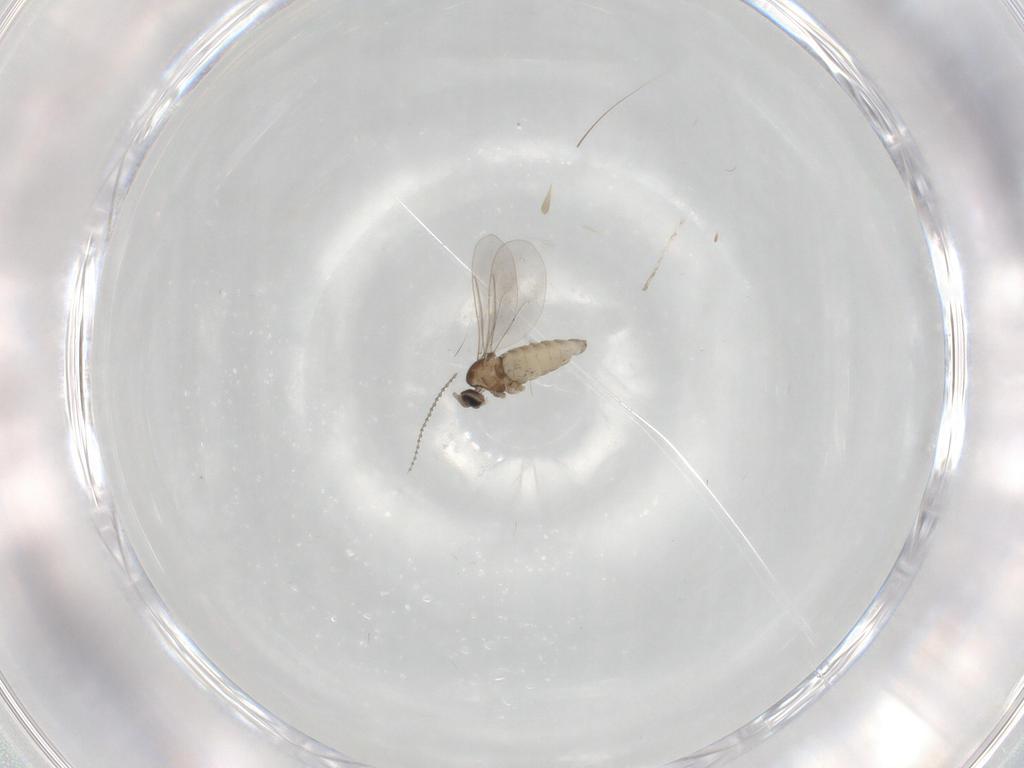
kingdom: Animalia
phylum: Arthropoda
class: Insecta
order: Diptera
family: Cecidomyiidae
